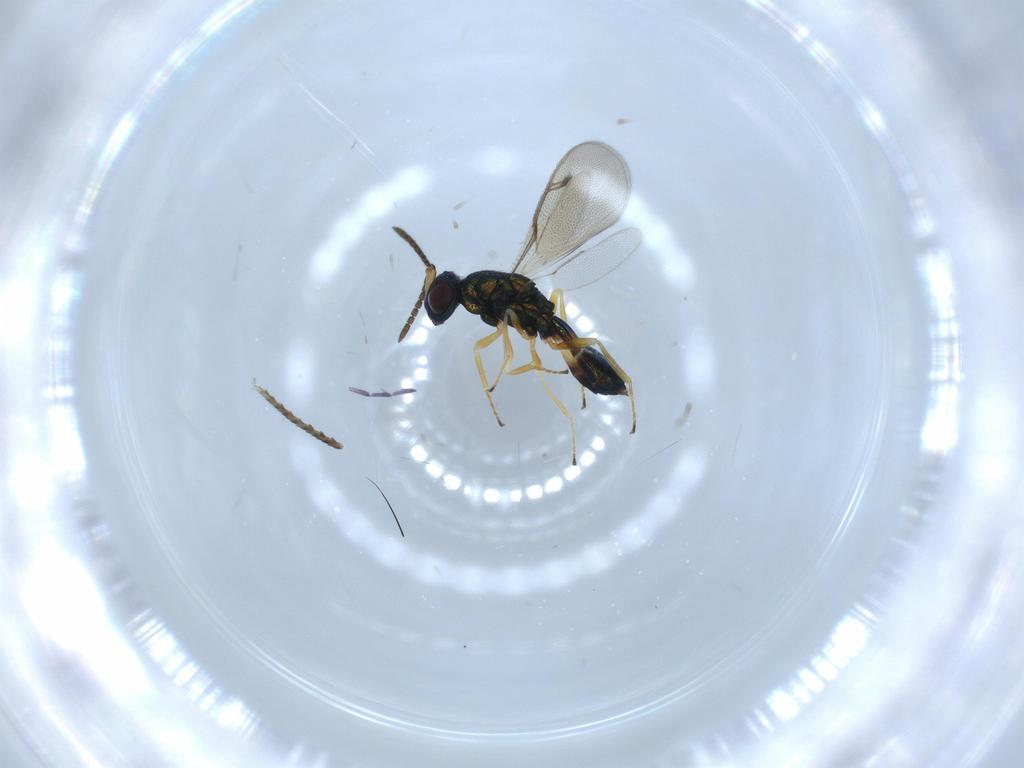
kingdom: Animalia
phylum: Arthropoda
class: Insecta
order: Hymenoptera
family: Pteromalidae
